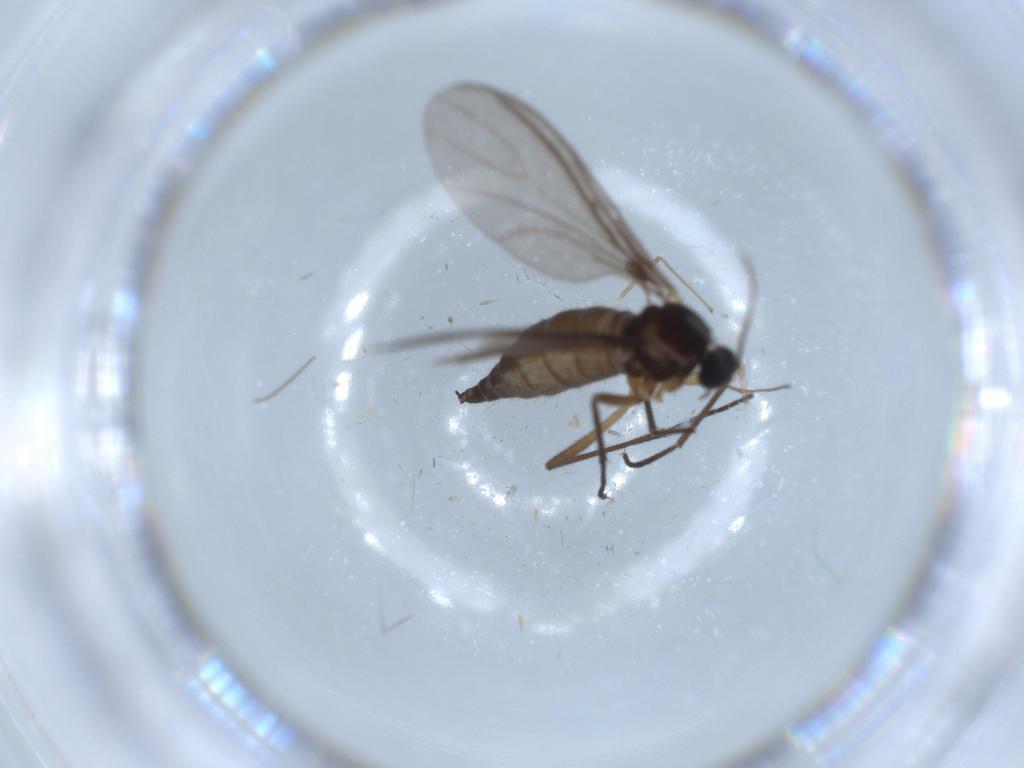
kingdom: Animalia
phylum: Arthropoda
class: Insecta
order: Diptera
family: Sciaridae
